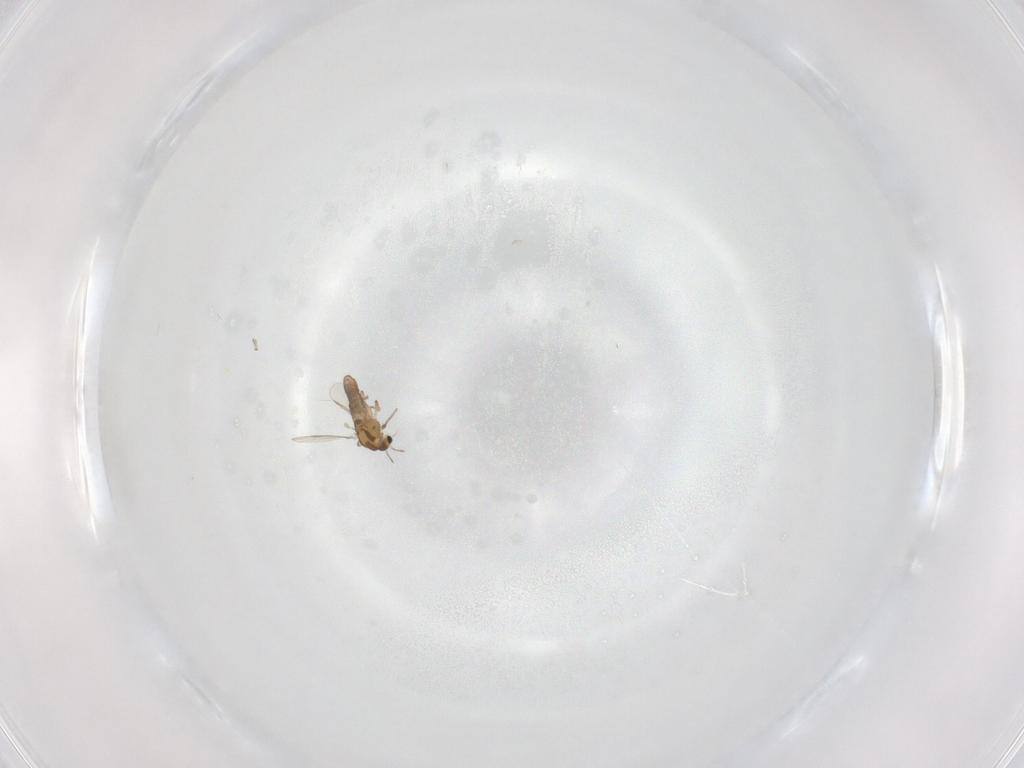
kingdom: Animalia
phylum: Arthropoda
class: Insecta
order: Diptera
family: Chironomidae
